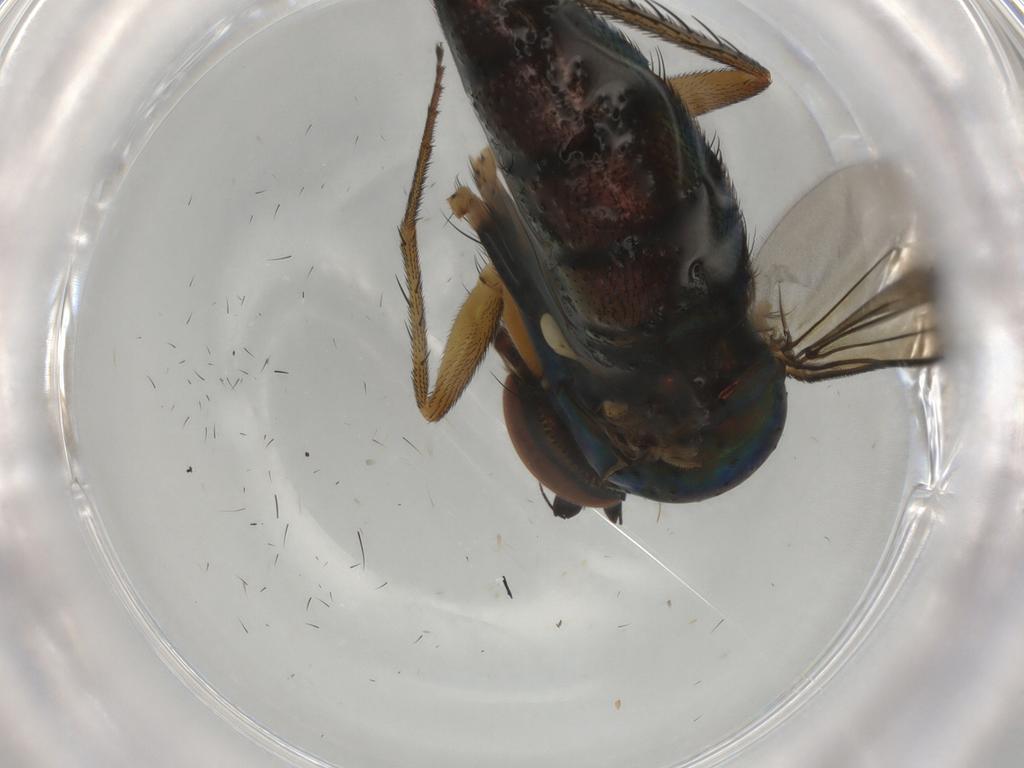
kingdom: Animalia
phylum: Arthropoda
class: Insecta
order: Diptera
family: Dolichopodidae
